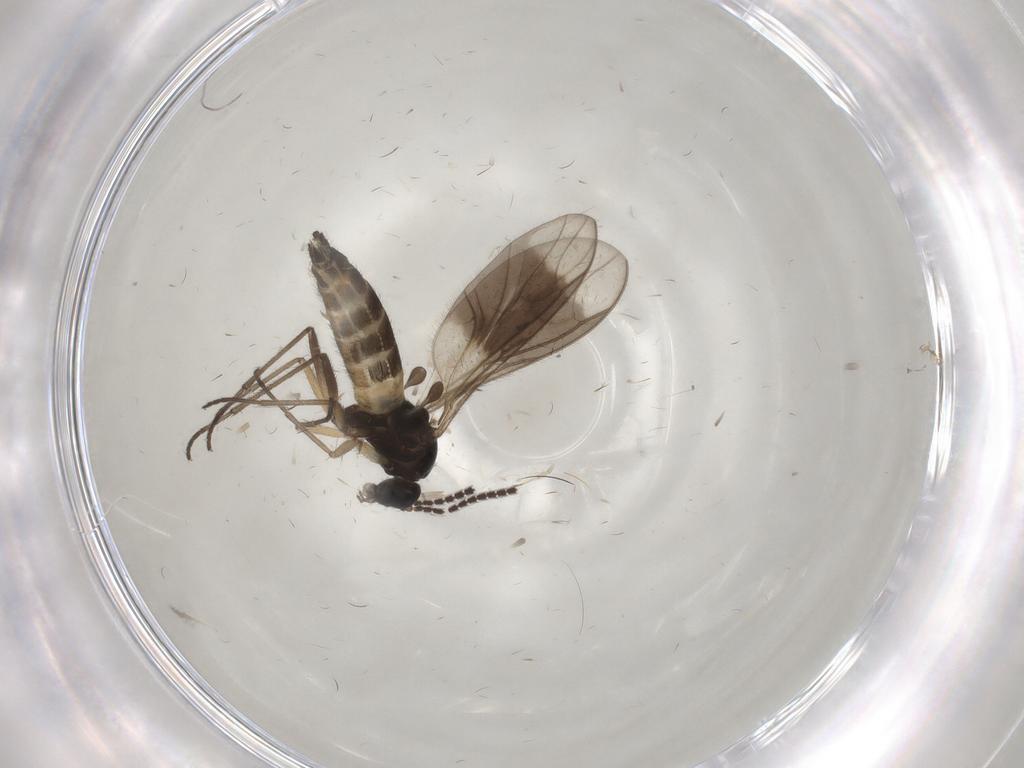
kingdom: Animalia
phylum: Arthropoda
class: Insecta
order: Diptera
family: Sciaridae
